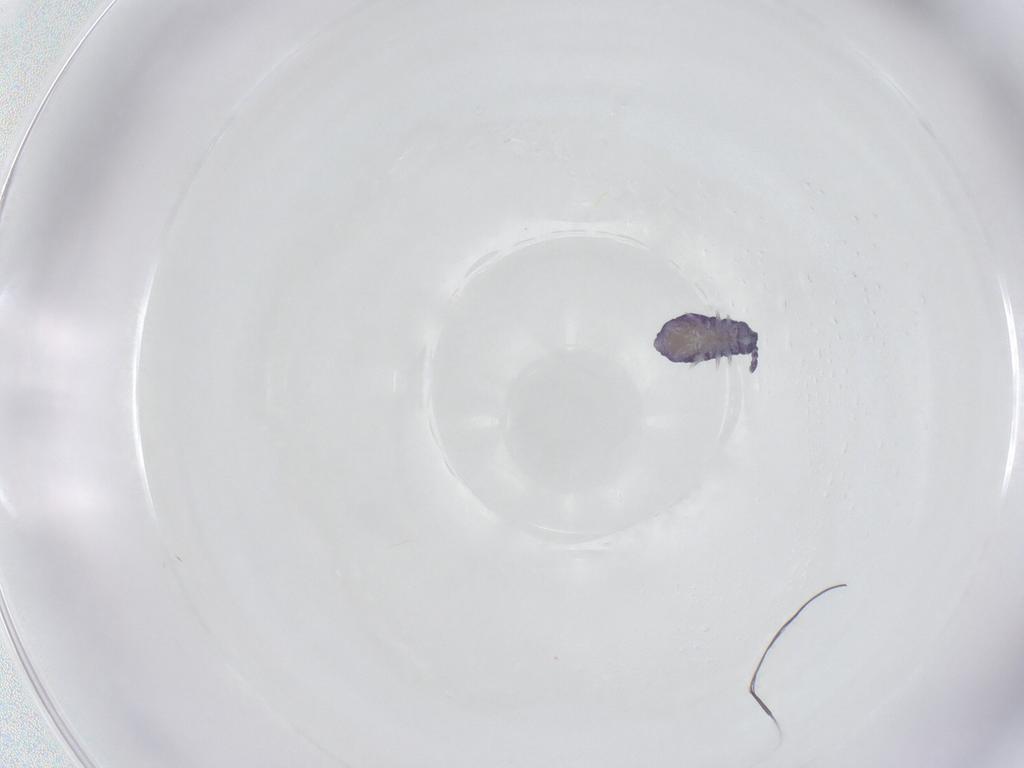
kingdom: Animalia
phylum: Arthropoda
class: Collembola
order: Poduromorpha
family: Neanuridae
